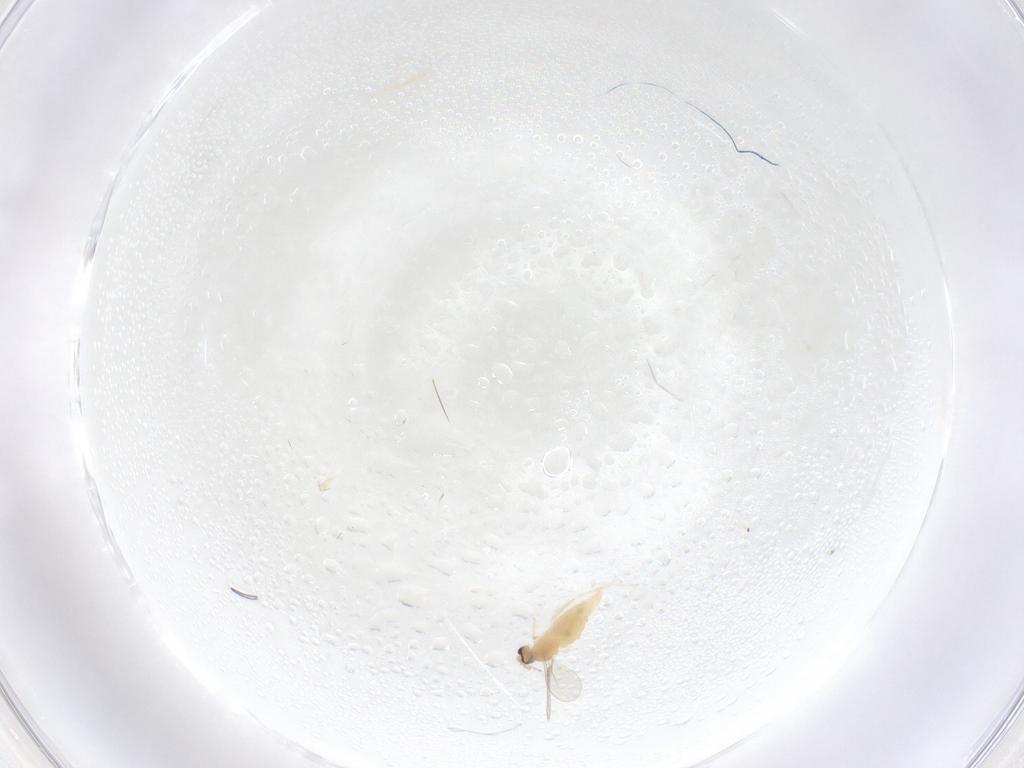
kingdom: Animalia
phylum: Arthropoda
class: Insecta
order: Diptera
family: Cecidomyiidae
